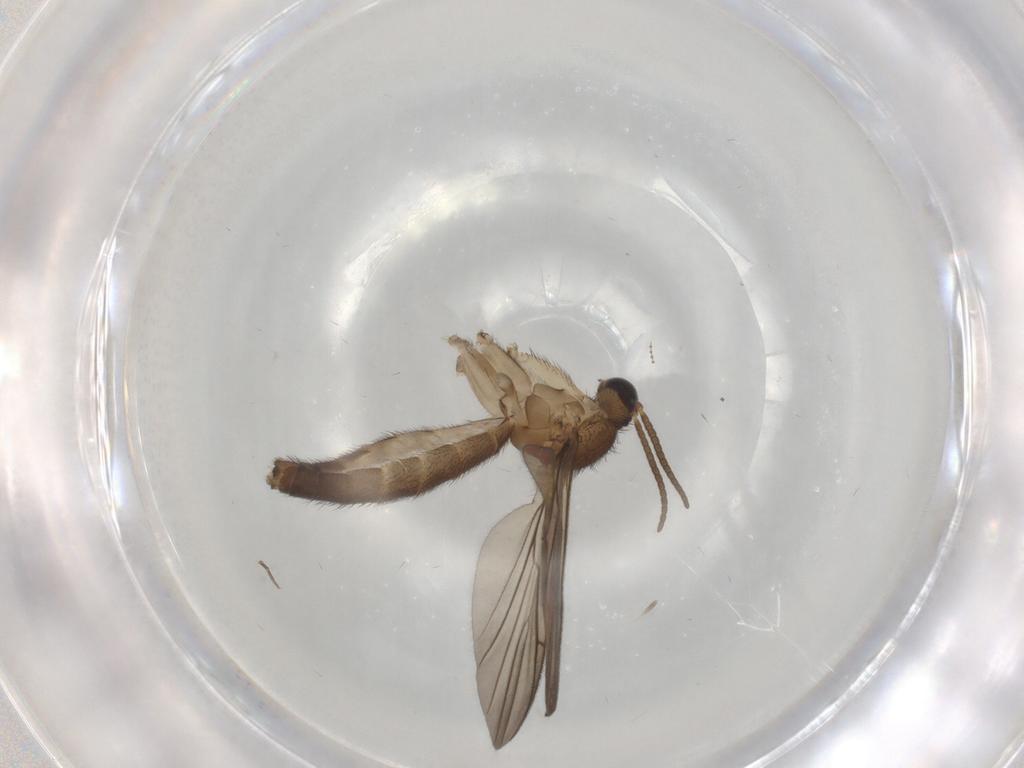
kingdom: Animalia
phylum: Arthropoda
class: Insecta
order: Diptera
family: Keroplatidae
